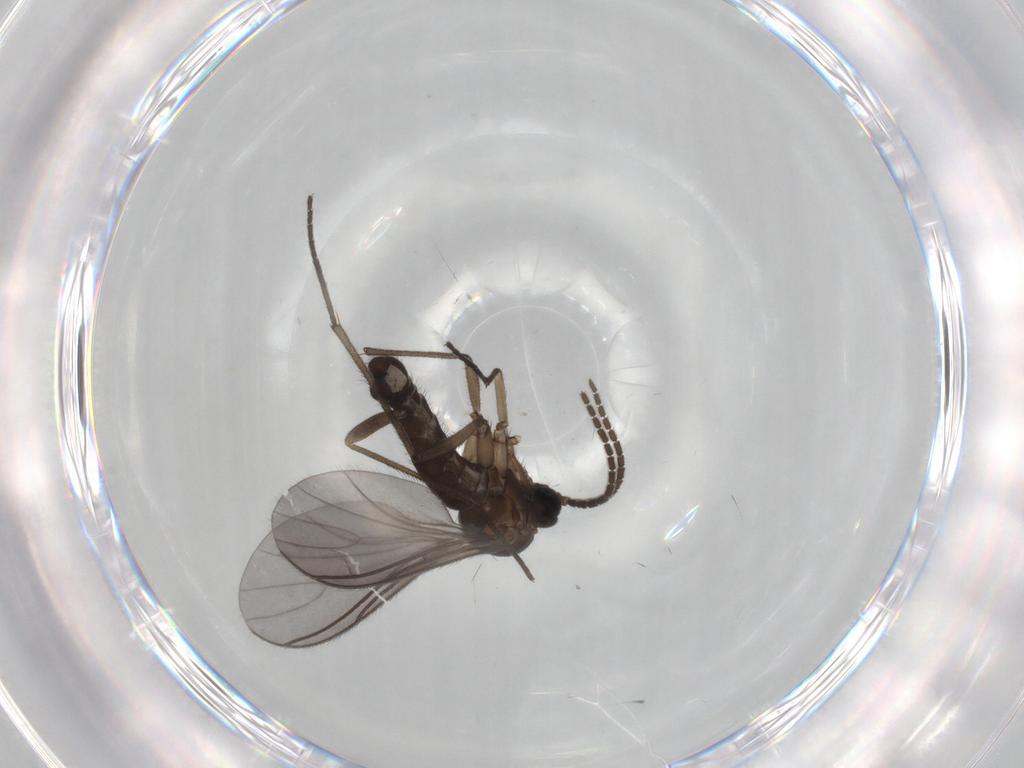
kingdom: Animalia
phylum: Arthropoda
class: Insecta
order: Diptera
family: Sciaridae
